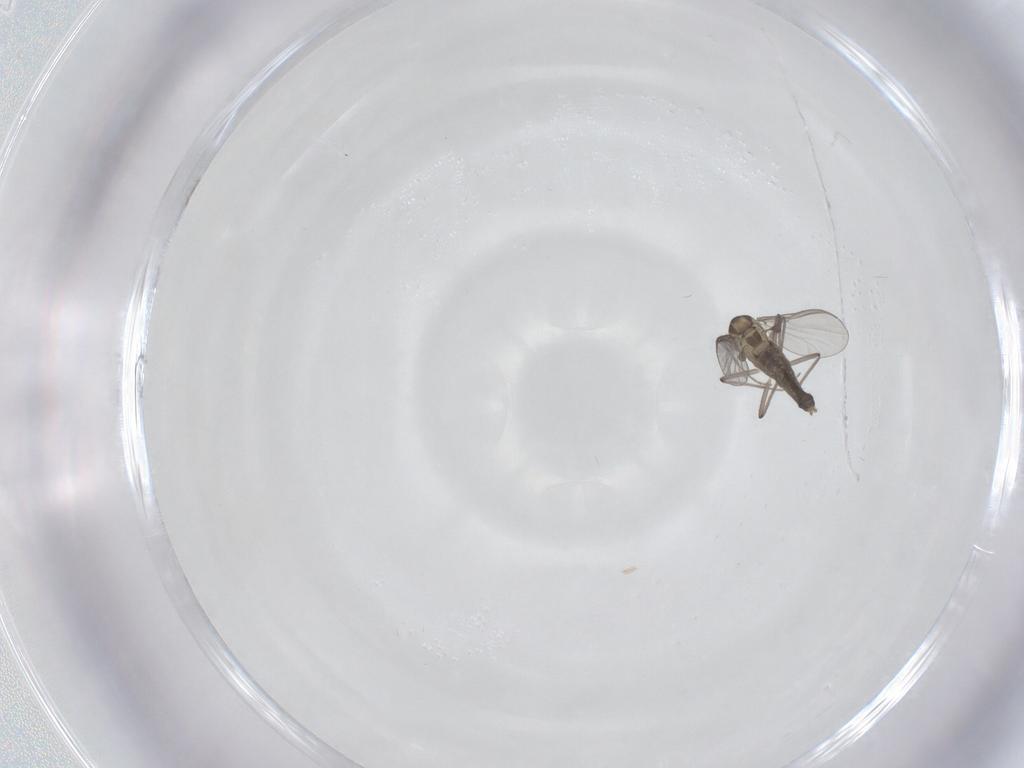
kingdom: Animalia
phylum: Arthropoda
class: Insecta
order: Diptera
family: Chironomidae
